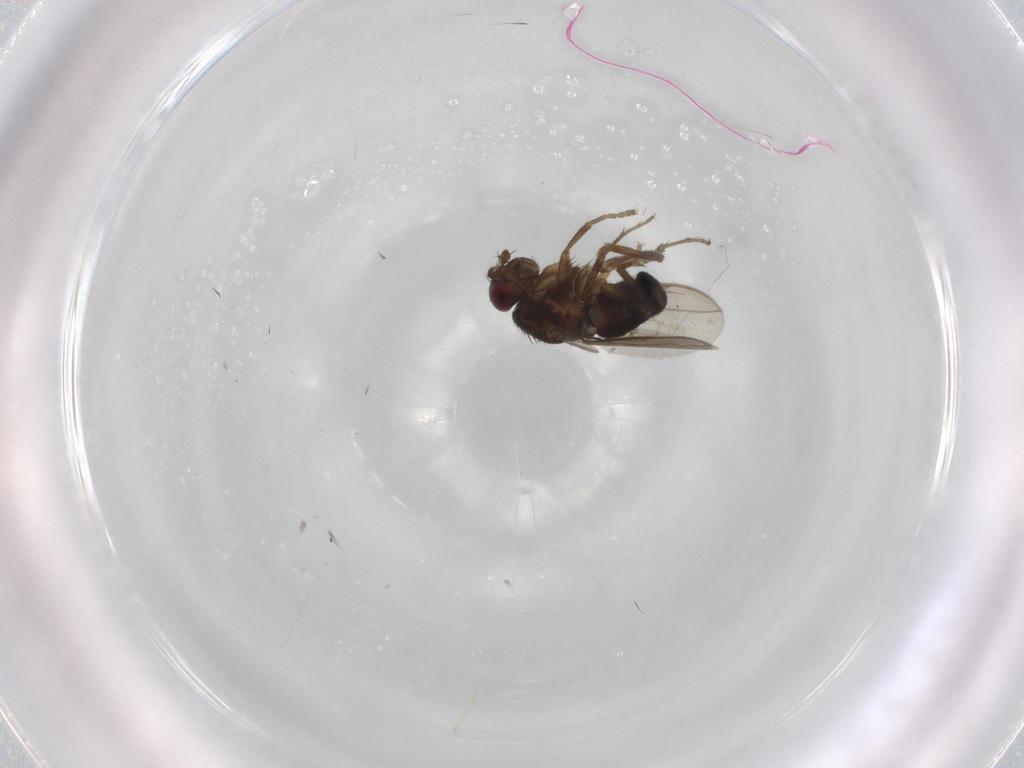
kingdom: Animalia
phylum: Arthropoda
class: Insecta
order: Diptera
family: Sphaeroceridae
